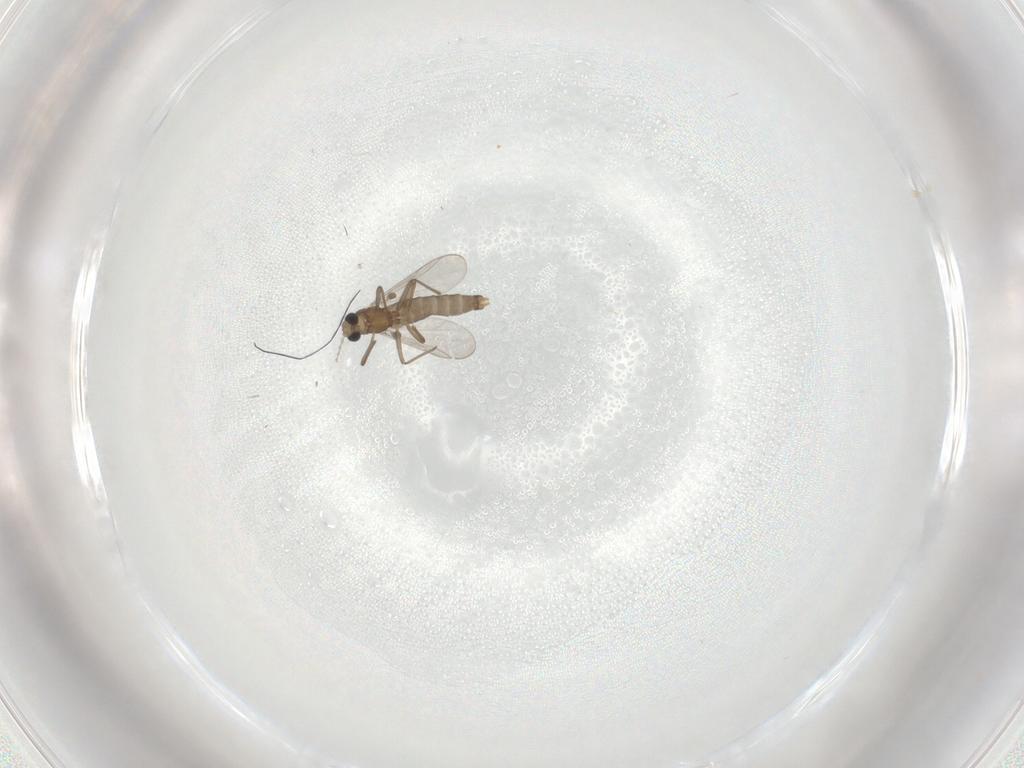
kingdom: Animalia
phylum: Arthropoda
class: Insecta
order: Diptera
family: Chironomidae
